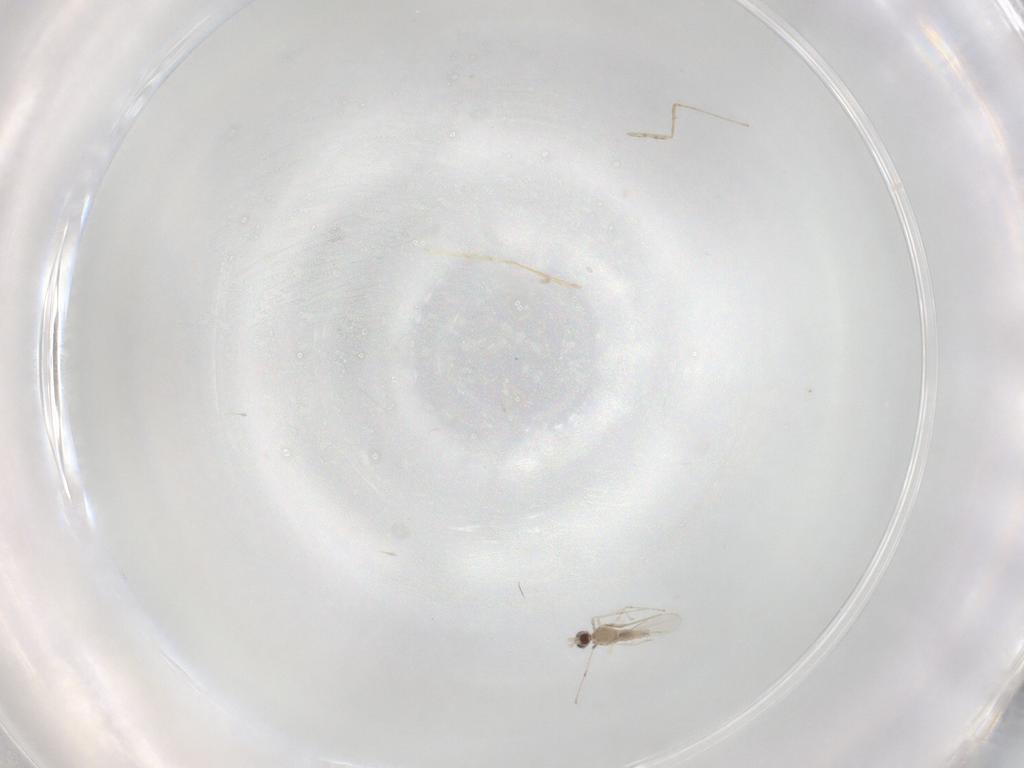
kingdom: Animalia
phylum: Arthropoda
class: Insecta
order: Diptera
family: Cecidomyiidae
